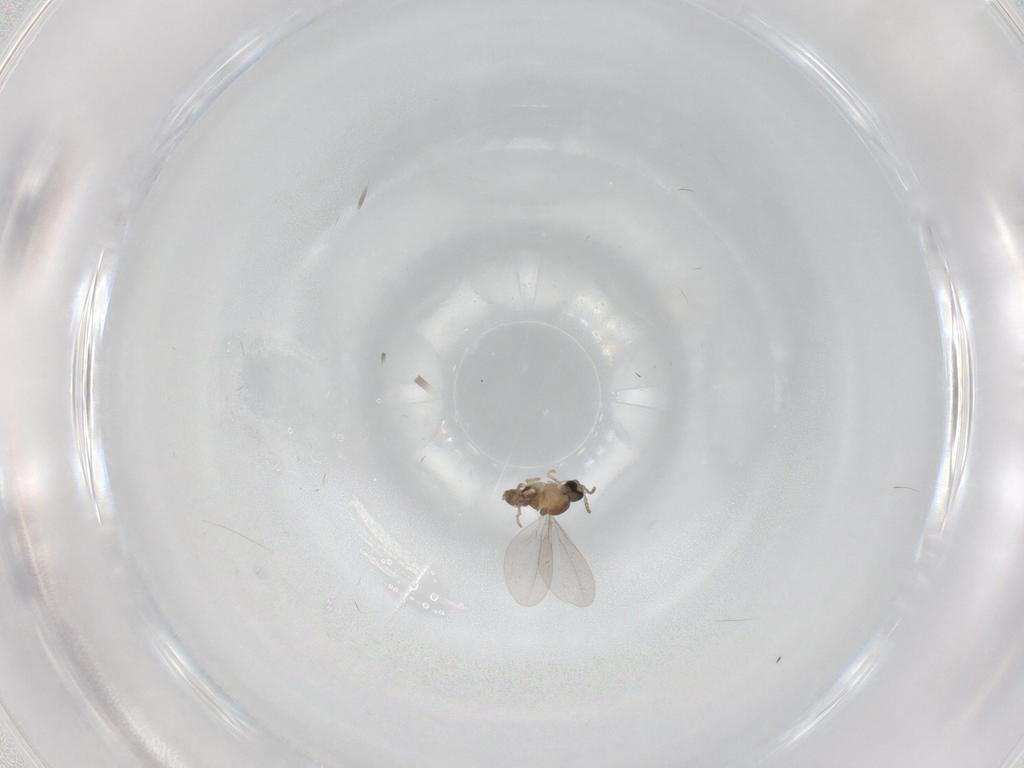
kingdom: Animalia
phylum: Arthropoda
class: Insecta
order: Diptera
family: Cecidomyiidae
